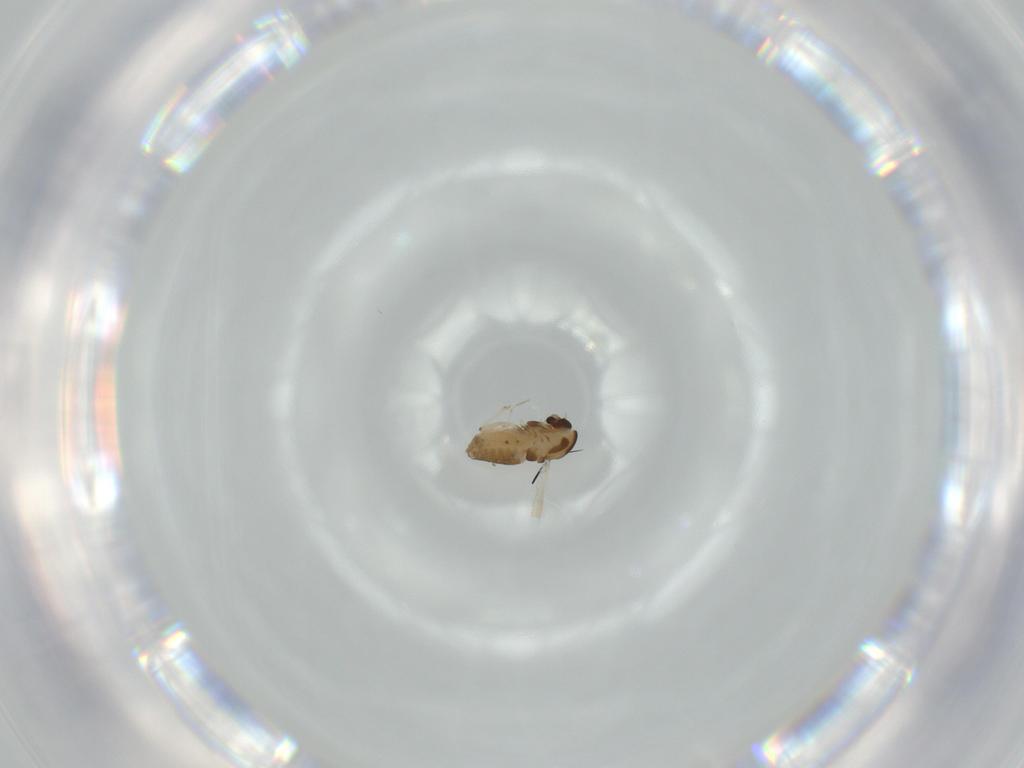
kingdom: Animalia
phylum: Arthropoda
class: Insecta
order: Diptera
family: Chironomidae
